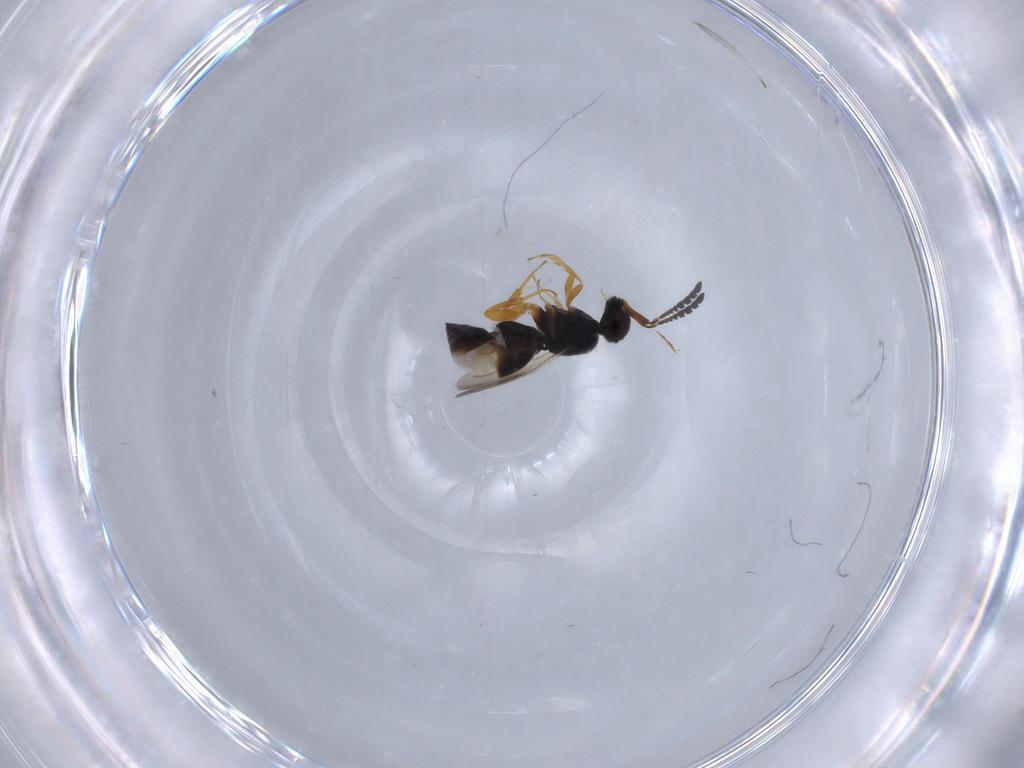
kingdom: Animalia
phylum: Arthropoda
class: Insecta
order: Hymenoptera
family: Ceraphronidae
